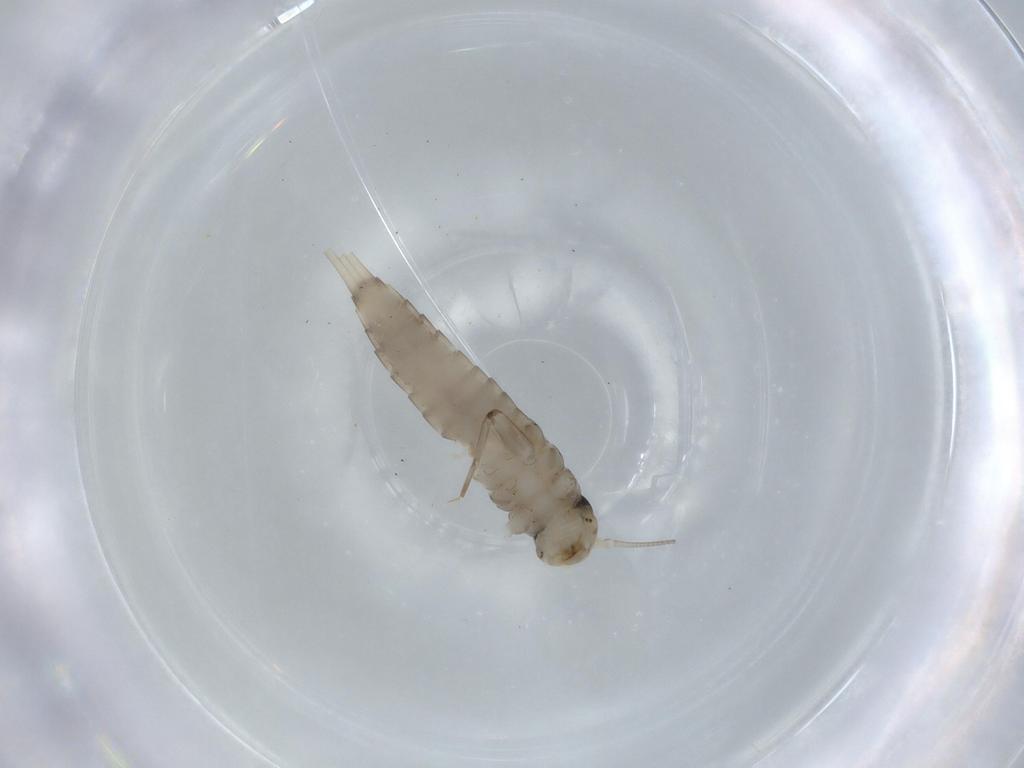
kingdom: Animalia
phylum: Arthropoda
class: Insecta
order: Ephemeroptera
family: Baetidae
